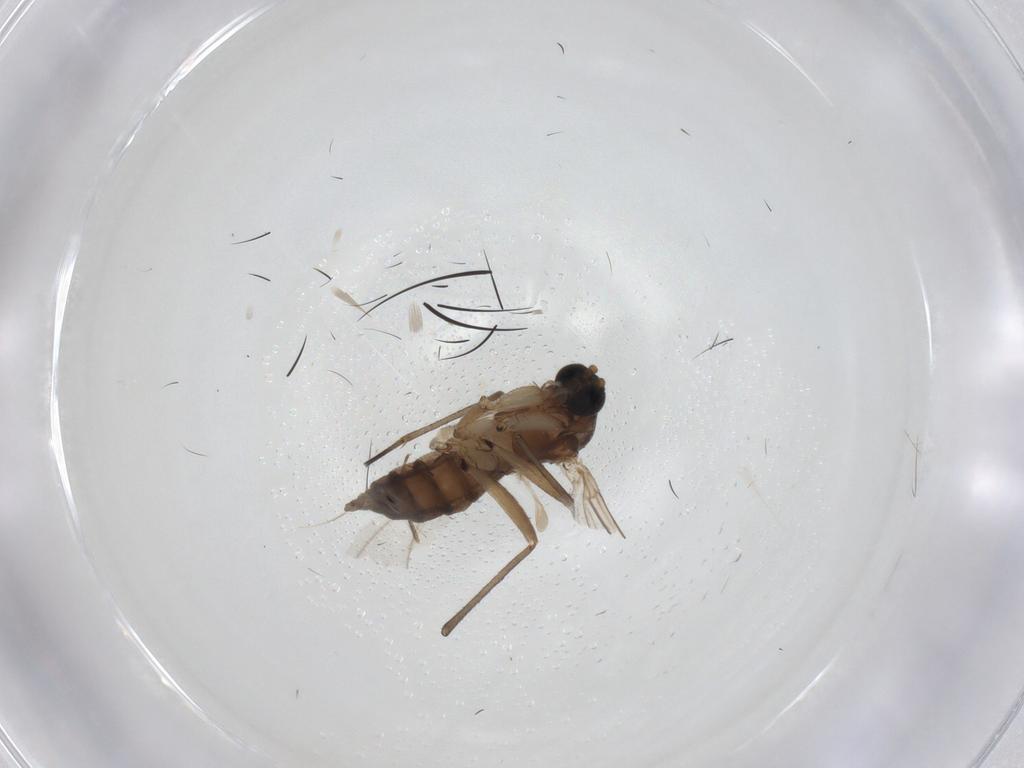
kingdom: Animalia
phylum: Arthropoda
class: Insecta
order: Diptera
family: Sciaridae
